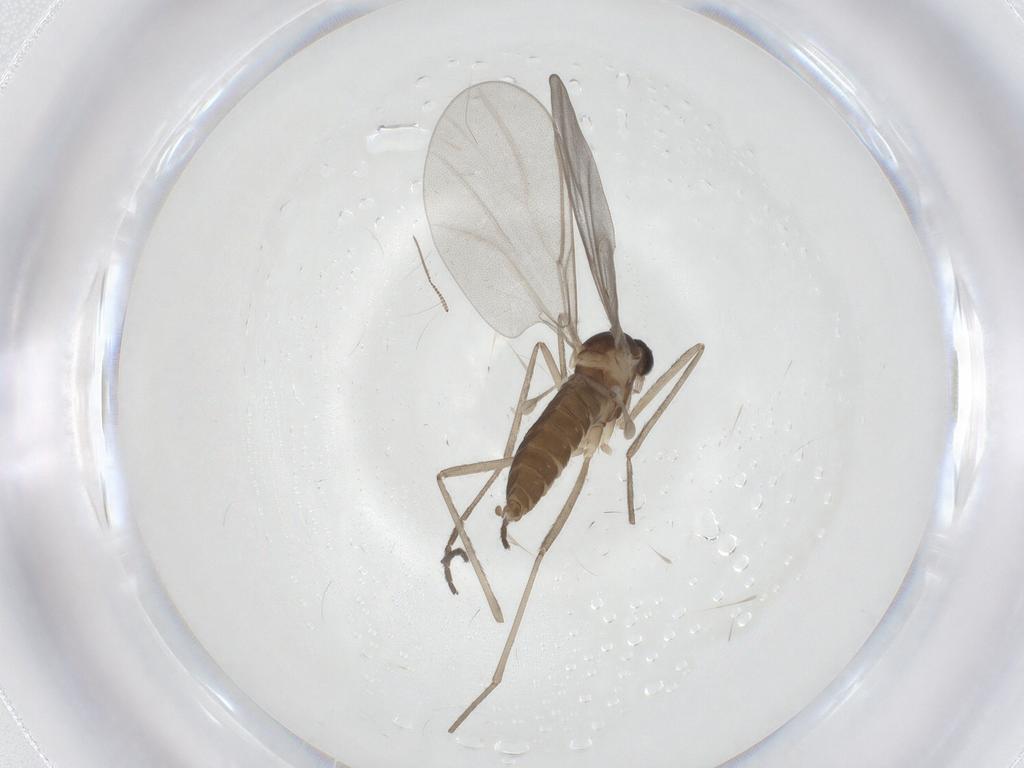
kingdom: Animalia
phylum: Arthropoda
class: Insecta
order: Diptera
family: Cecidomyiidae
